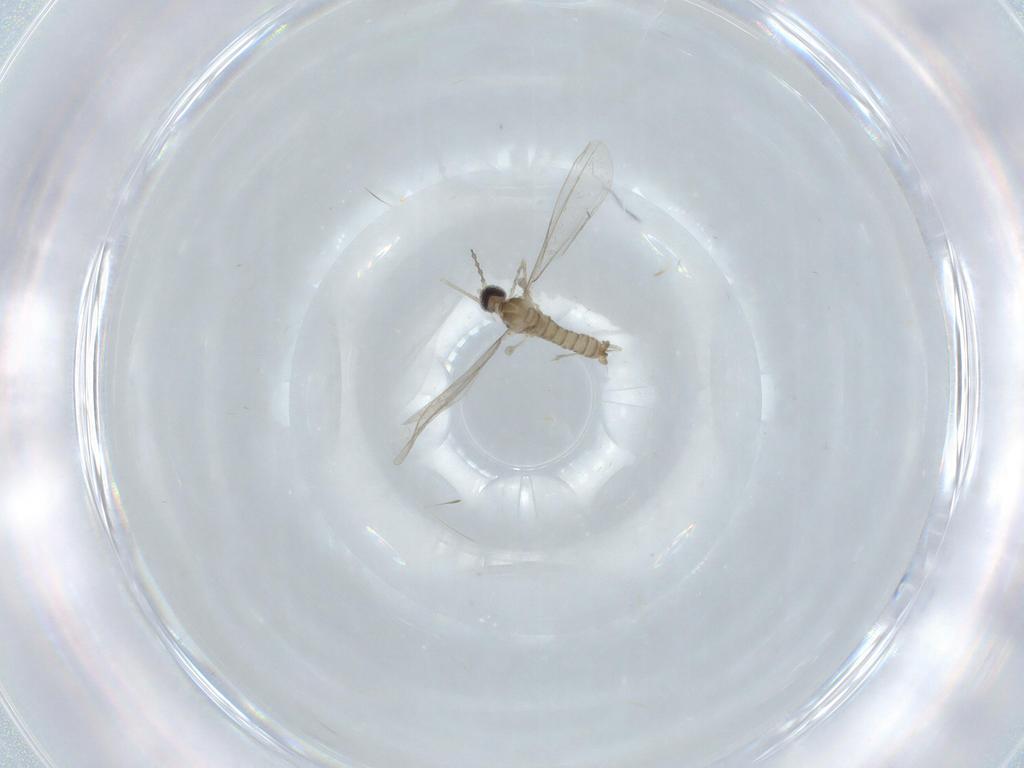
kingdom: Animalia
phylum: Arthropoda
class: Insecta
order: Diptera
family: Cecidomyiidae
